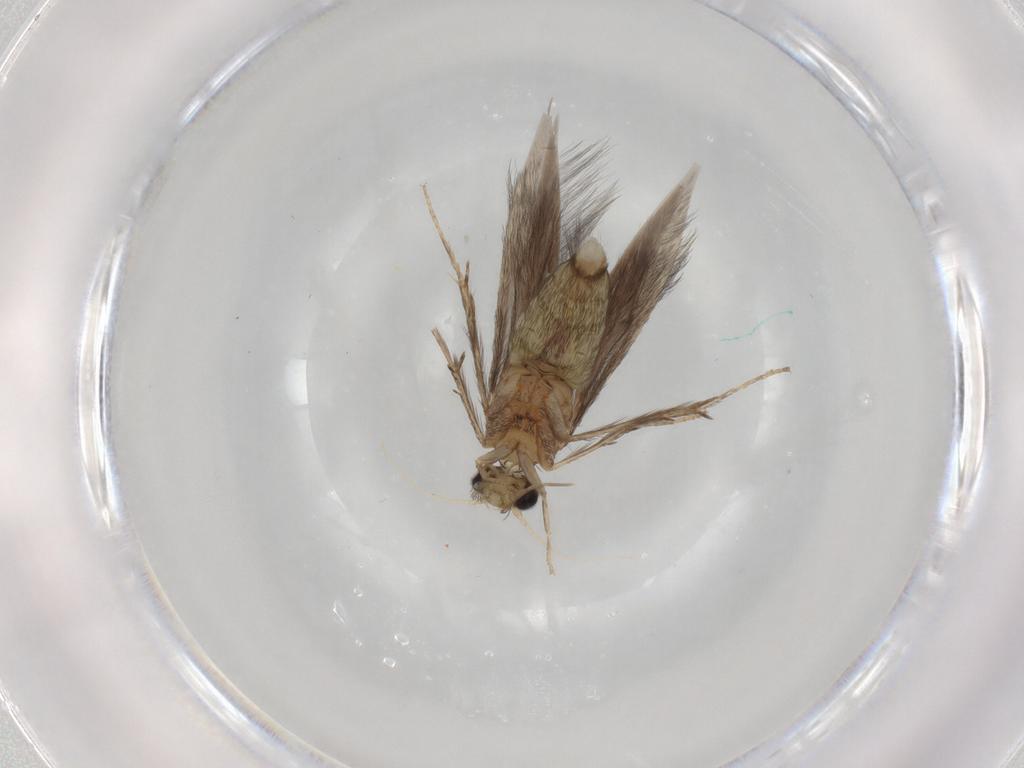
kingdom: Animalia
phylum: Arthropoda
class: Insecta
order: Trichoptera
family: Hydroptilidae
